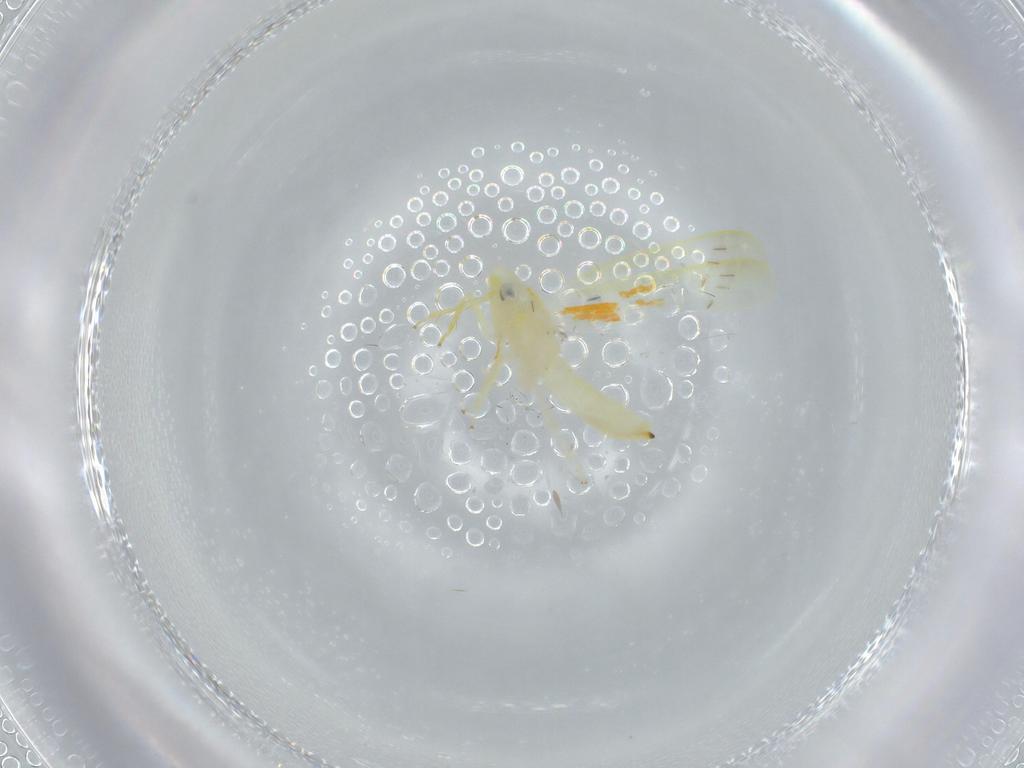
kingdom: Animalia
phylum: Arthropoda
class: Insecta
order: Hemiptera
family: Cicadellidae
